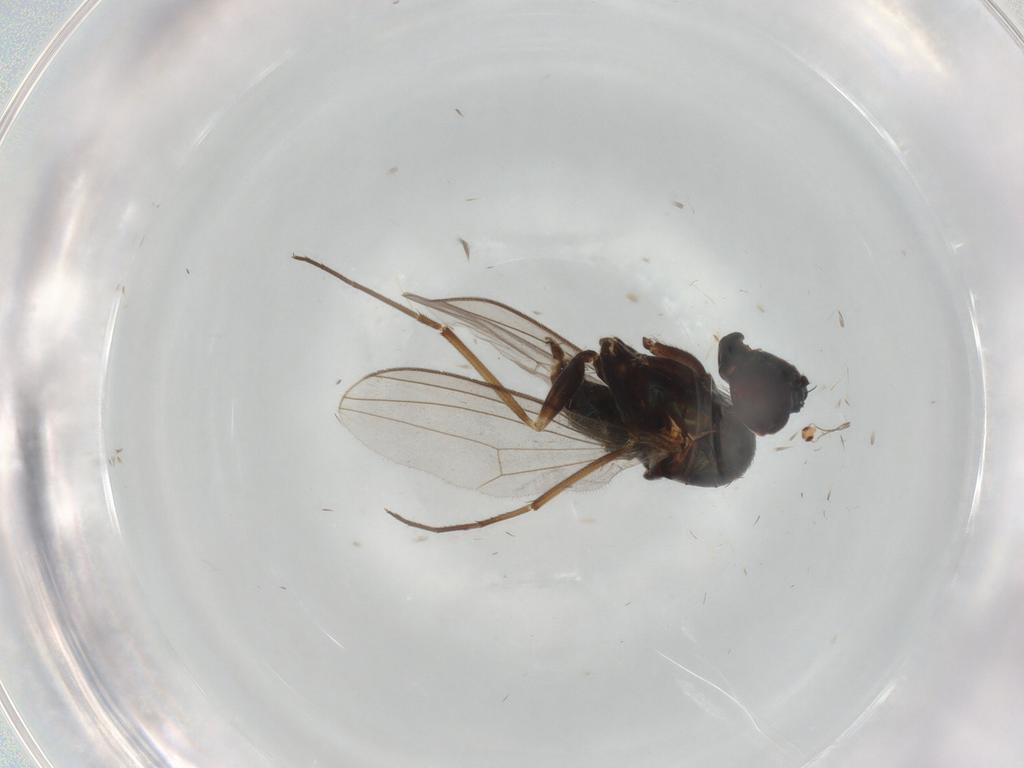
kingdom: Animalia
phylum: Arthropoda
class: Insecta
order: Diptera
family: Dolichopodidae
